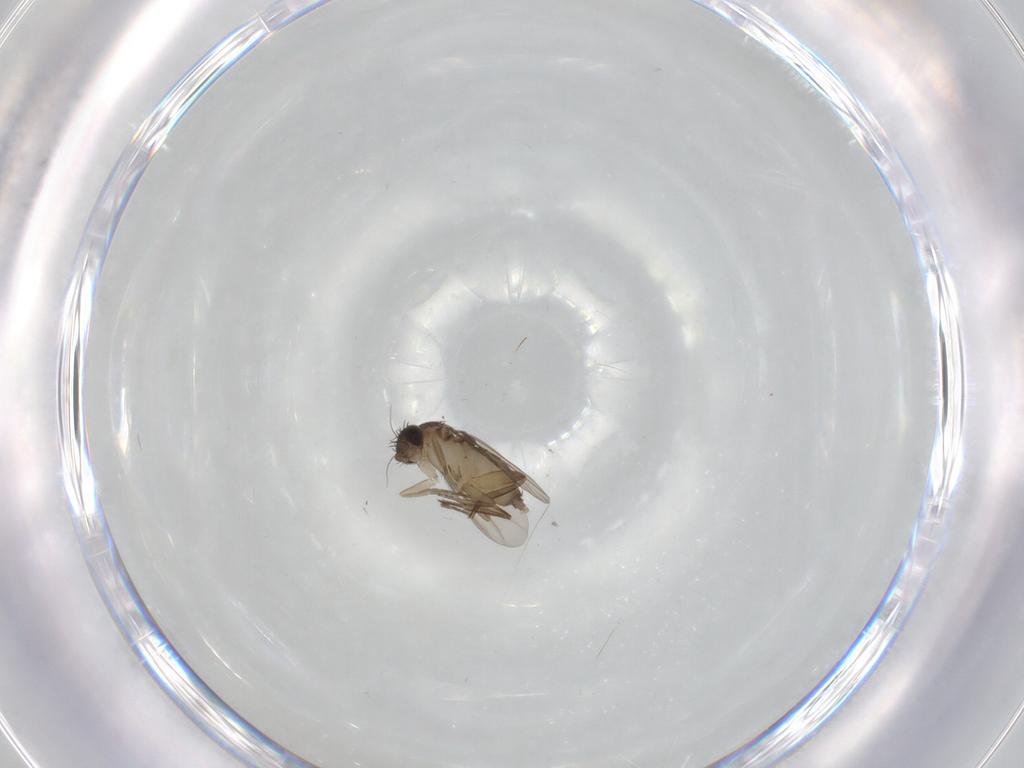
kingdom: Animalia
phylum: Arthropoda
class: Insecta
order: Diptera
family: Phoridae
